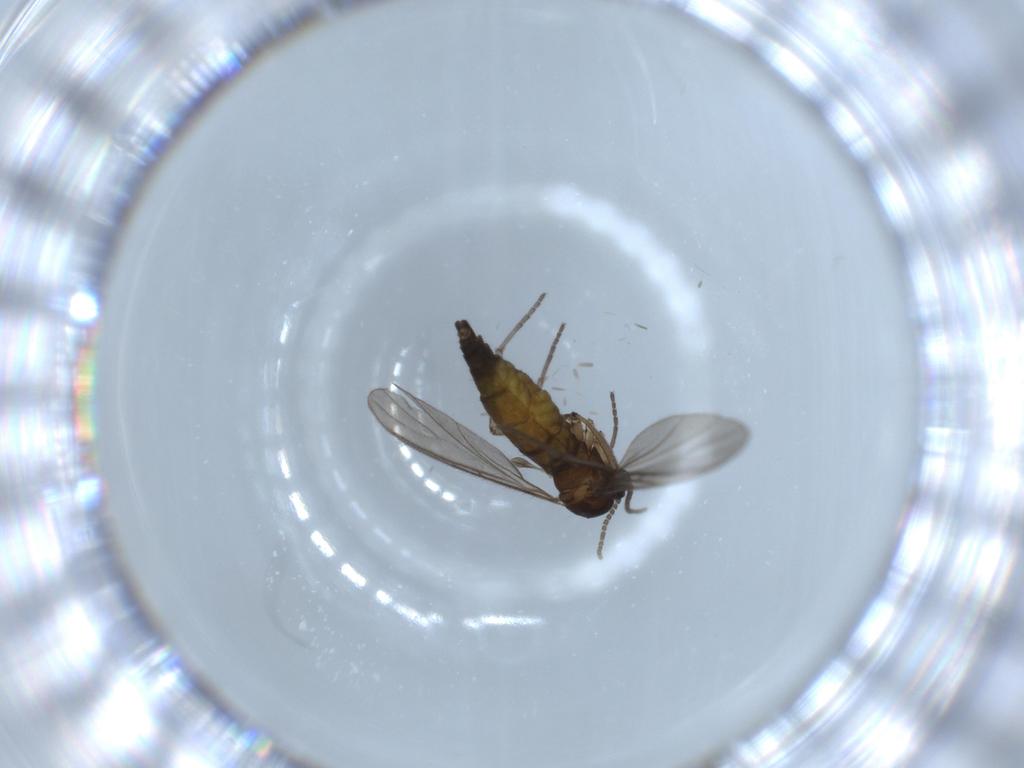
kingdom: Animalia
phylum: Arthropoda
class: Insecta
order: Diptera
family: Sciaridae
